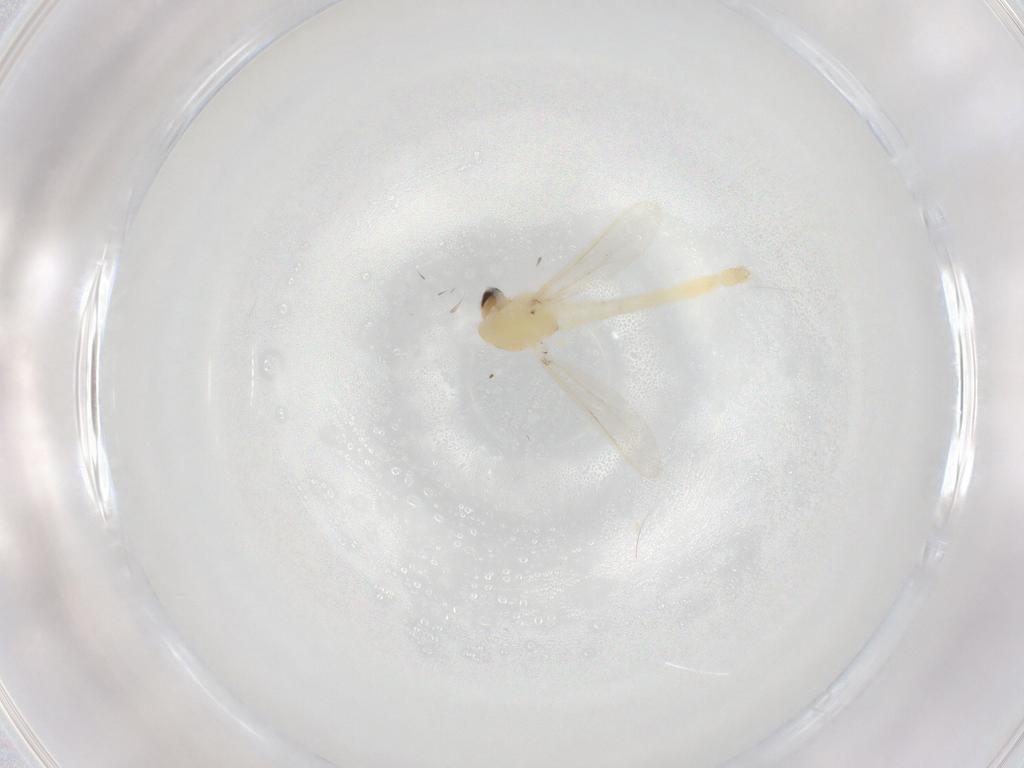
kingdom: Animalia
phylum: Arthropoda
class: Insecta
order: Diptera
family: Chironomidae
